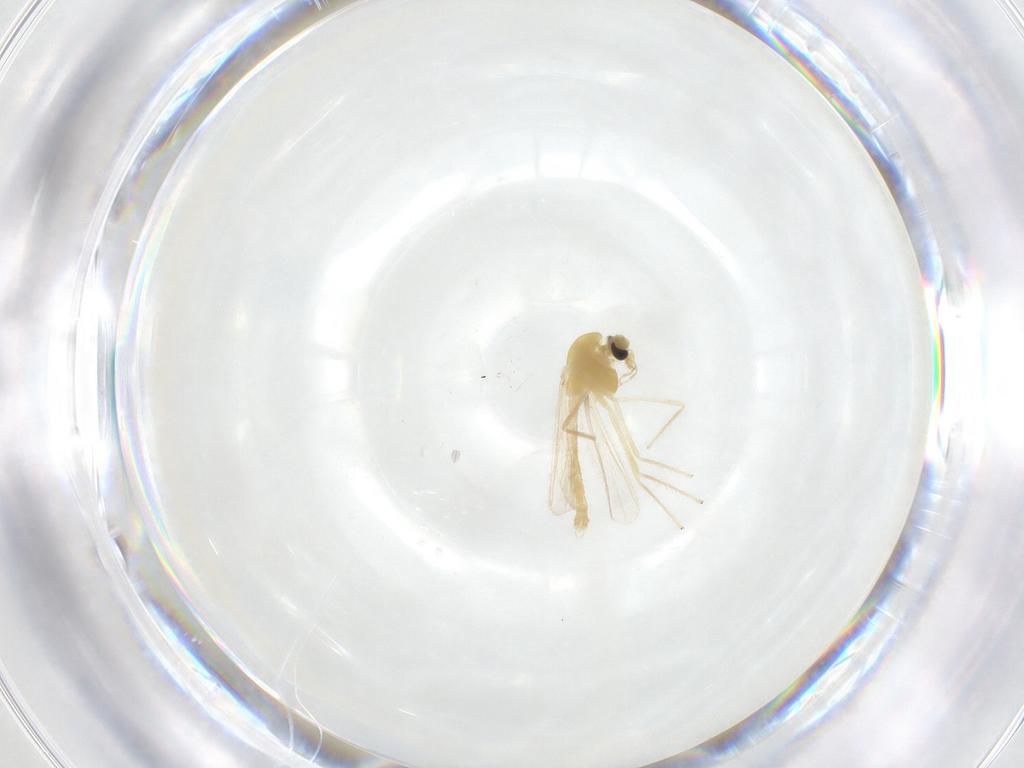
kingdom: Animalia
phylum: Arthropoda
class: Insecta
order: Diptera
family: Chironomidae
